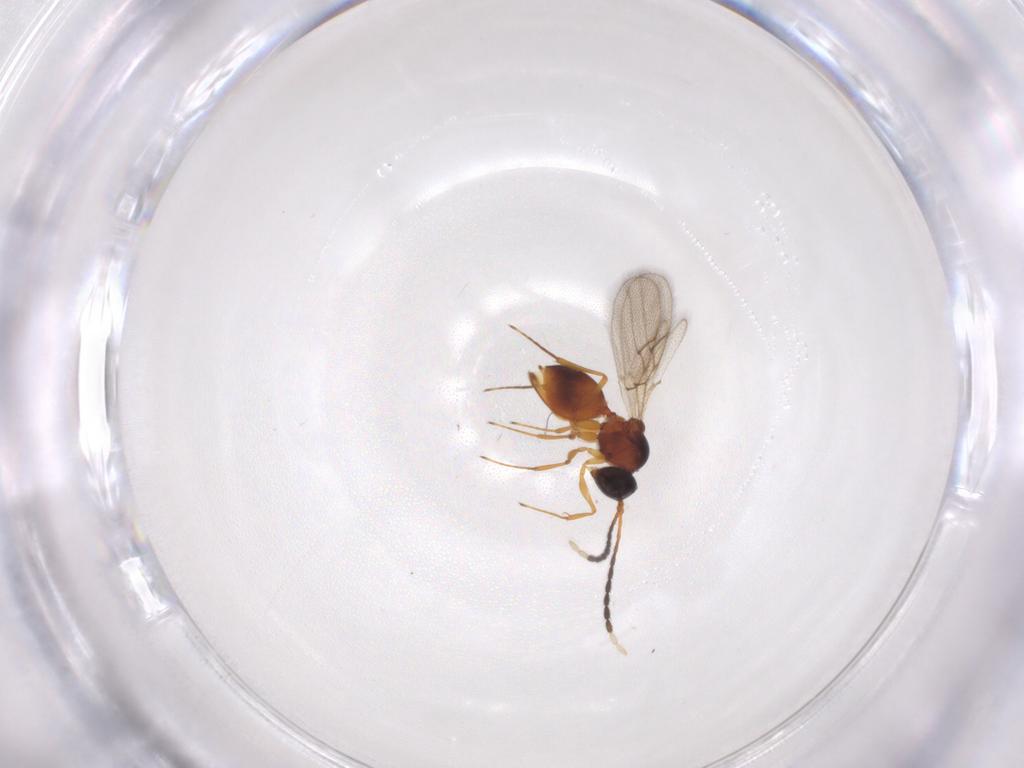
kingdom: Animalia
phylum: Arthropoda
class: Insecta
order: Hymenoptera
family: Figitidae
